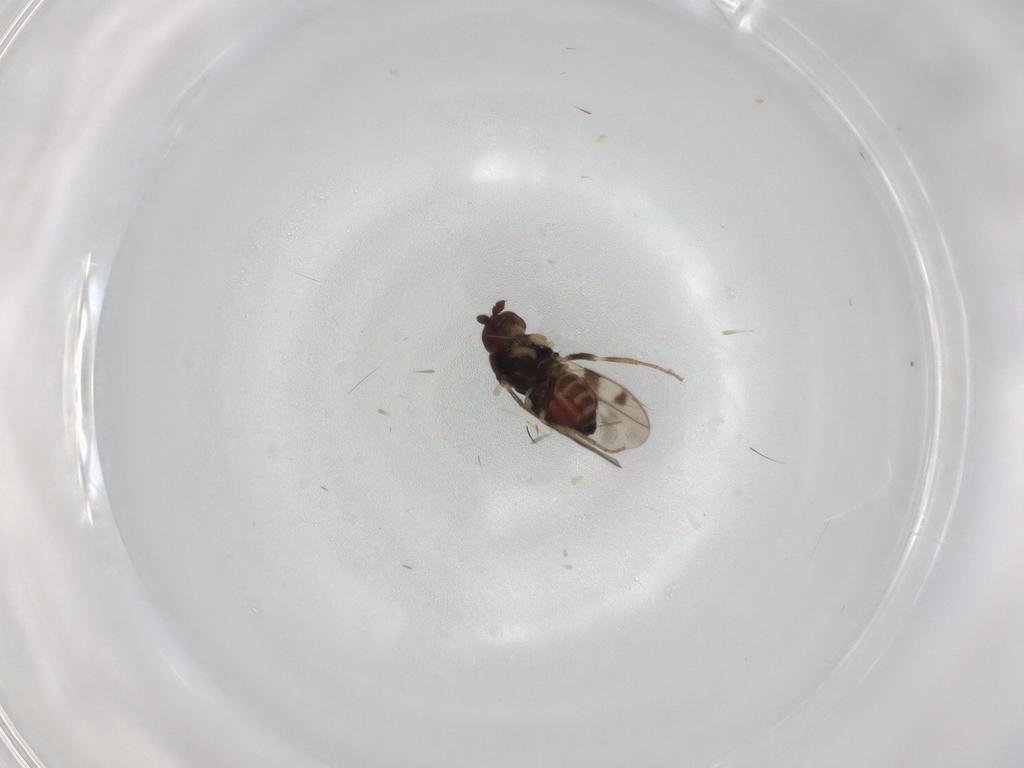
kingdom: Animalia
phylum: Arthropoda
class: Insecta
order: Diptera
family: Sphaeroceridae
